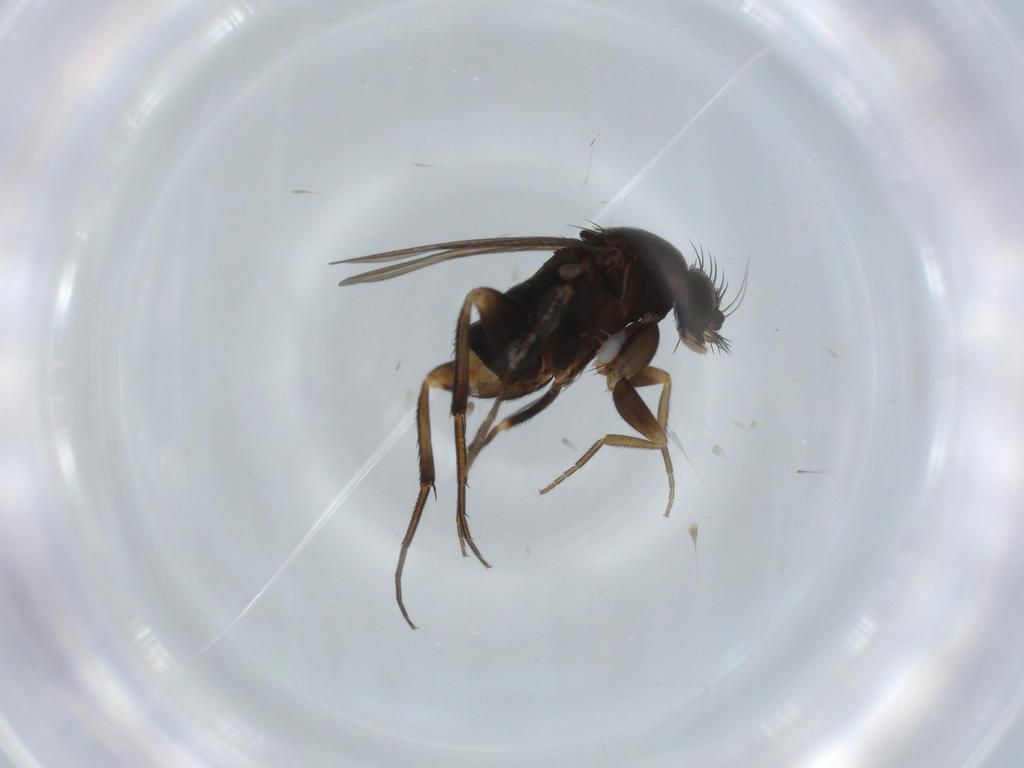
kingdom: Animalia
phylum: Arthropoda
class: Insecta
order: Diptera
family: Phoridae
